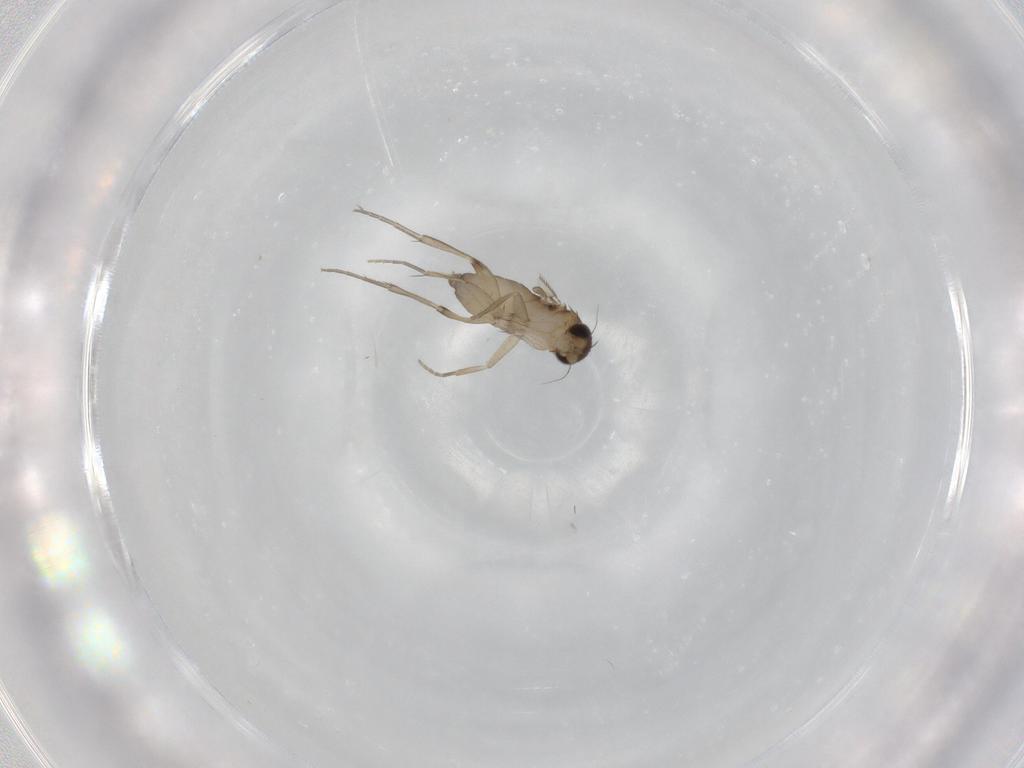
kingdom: Animalia
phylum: Arthropoda
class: Insecta
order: Diptera
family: Phoridae
